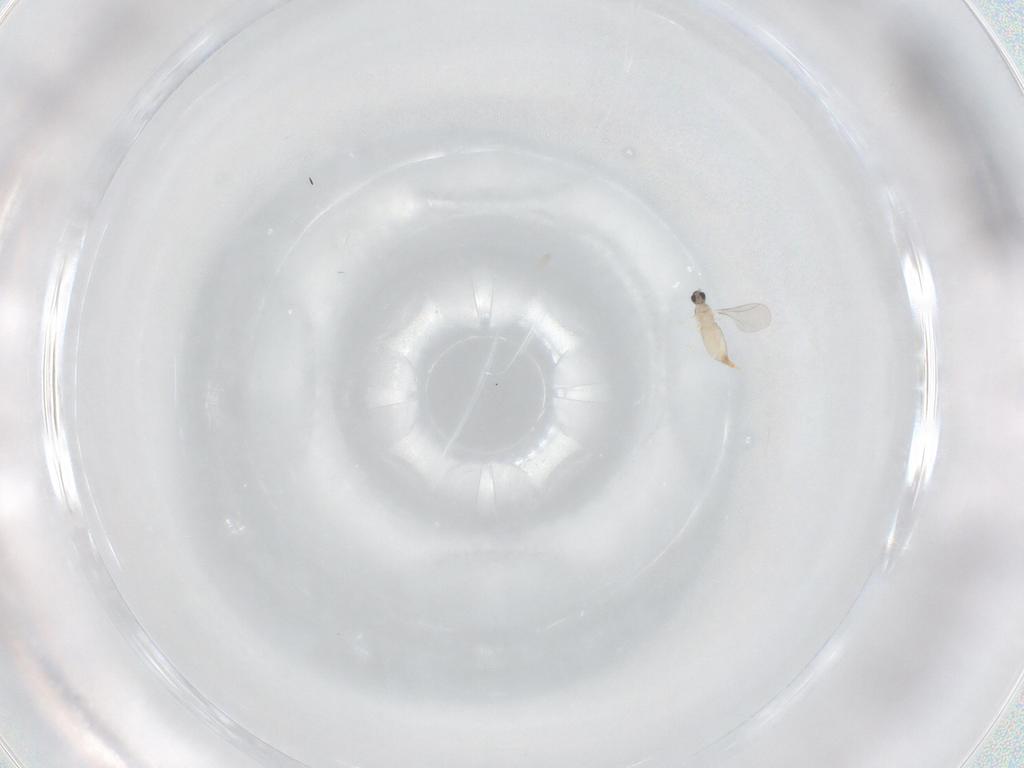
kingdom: Animalia
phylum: Arthropoda
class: Insecta
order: Diptera
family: Cecidomyiidae
